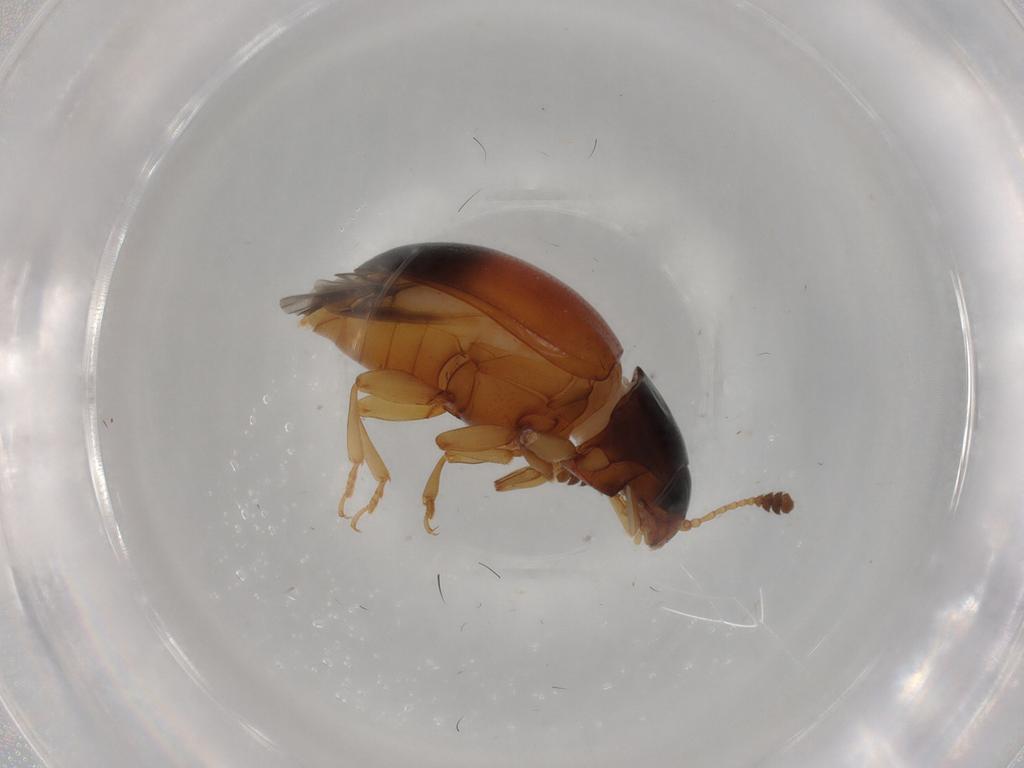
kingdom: Animalia
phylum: Arthropoda
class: Insecta
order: Coleoptera
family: Erotylidae
